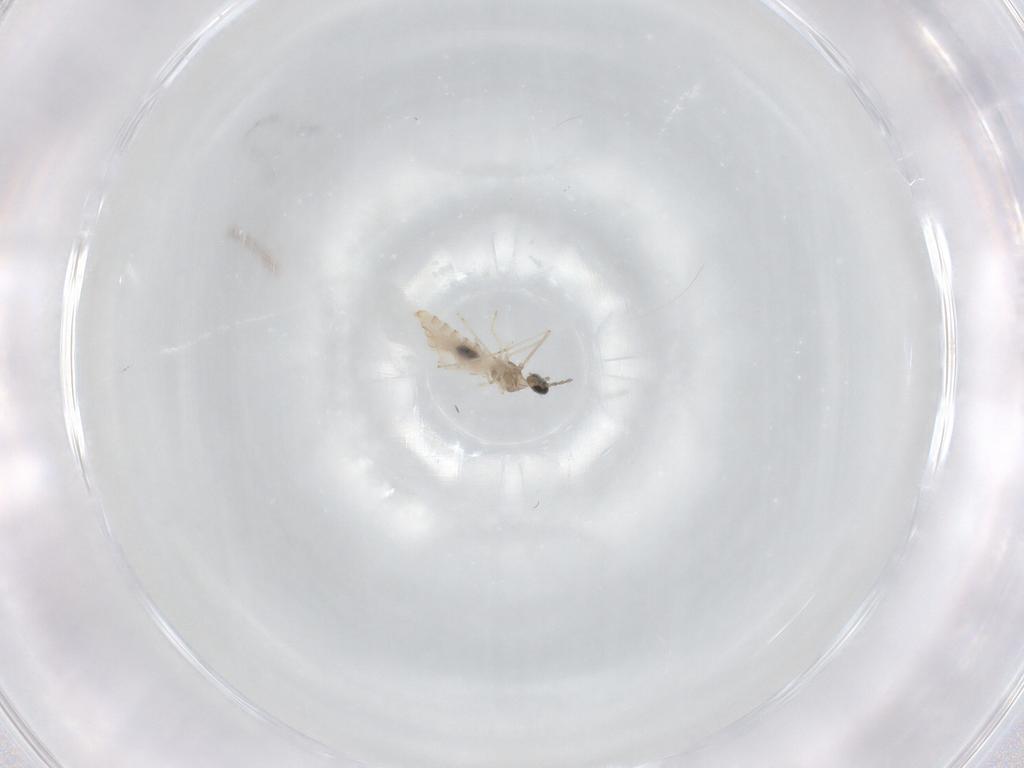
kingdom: Animalia
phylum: Arthropoda
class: Insecta
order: Diptera
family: Cecidomyiidae
